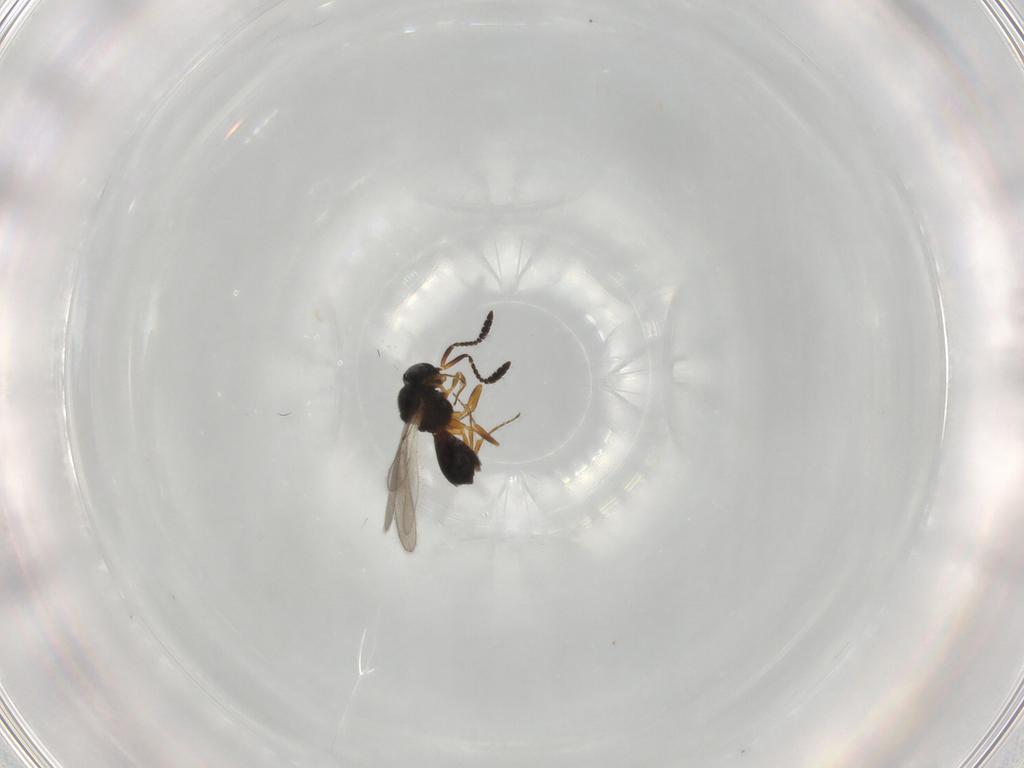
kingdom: Animalia
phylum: Arthropoda
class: Insecta
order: Hymenoptera
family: Scelionidae
